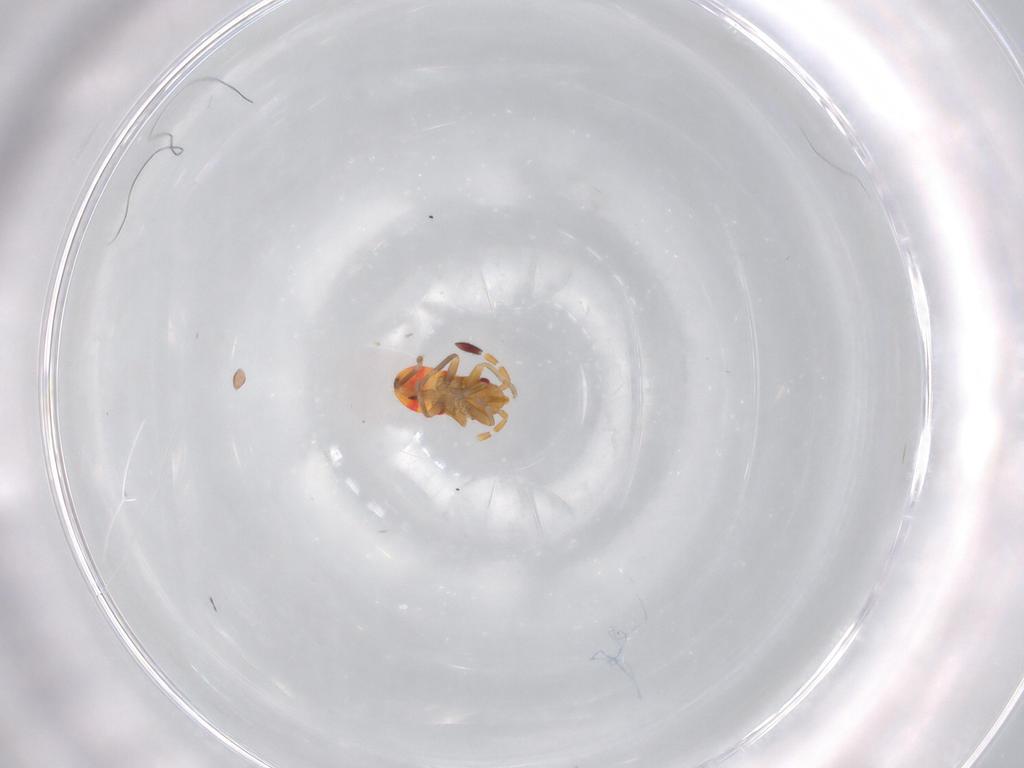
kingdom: Animalia
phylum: Arthropoda
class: Insecta
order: Hemiptera
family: Rhyparochromidae
